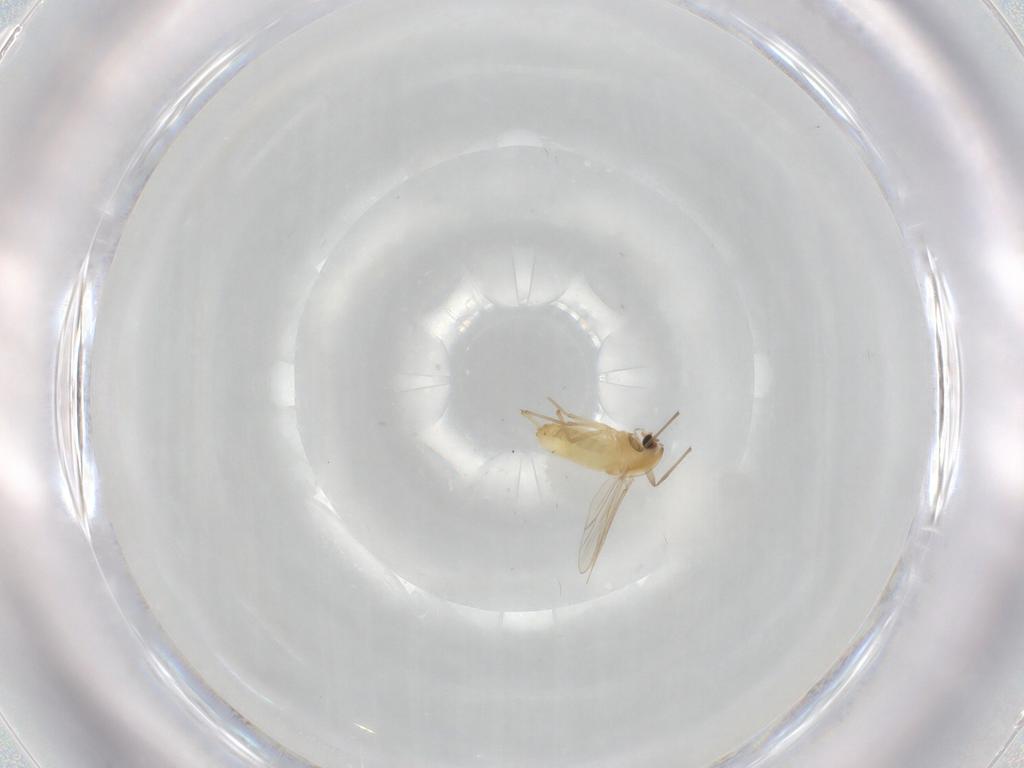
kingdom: Animalia
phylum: Arthropoda
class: Insecta
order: Diptera
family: Chironomidae
